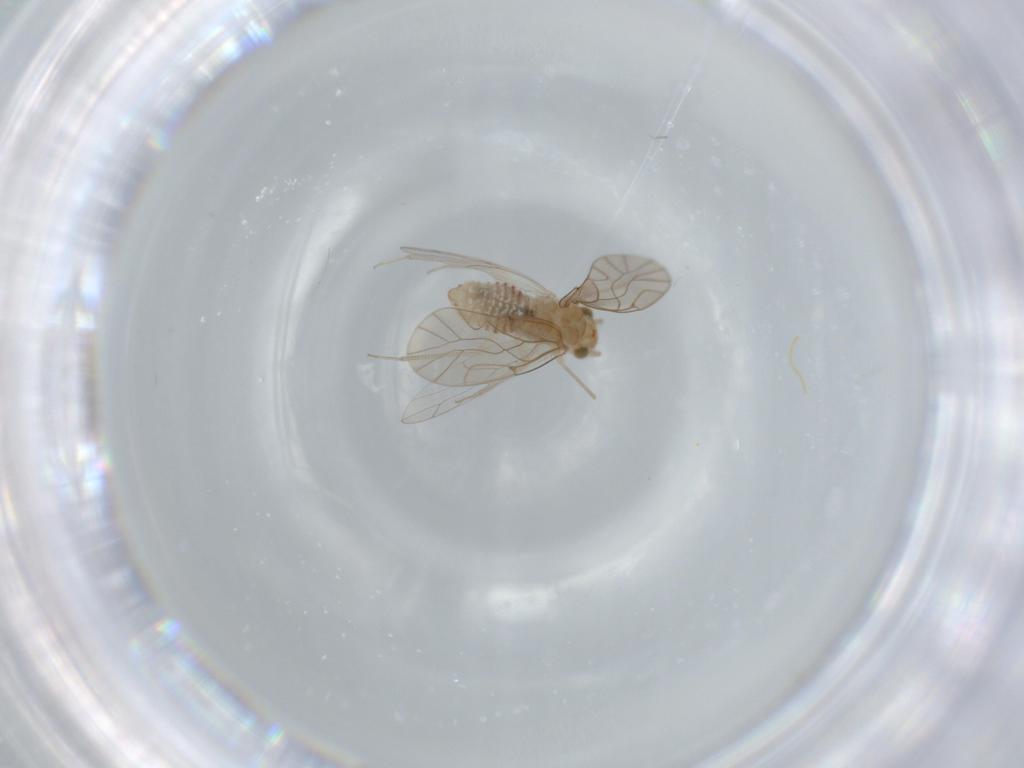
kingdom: Animalia
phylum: Arthropoda
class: Insecta
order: Psocodea
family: Lachesillidae
